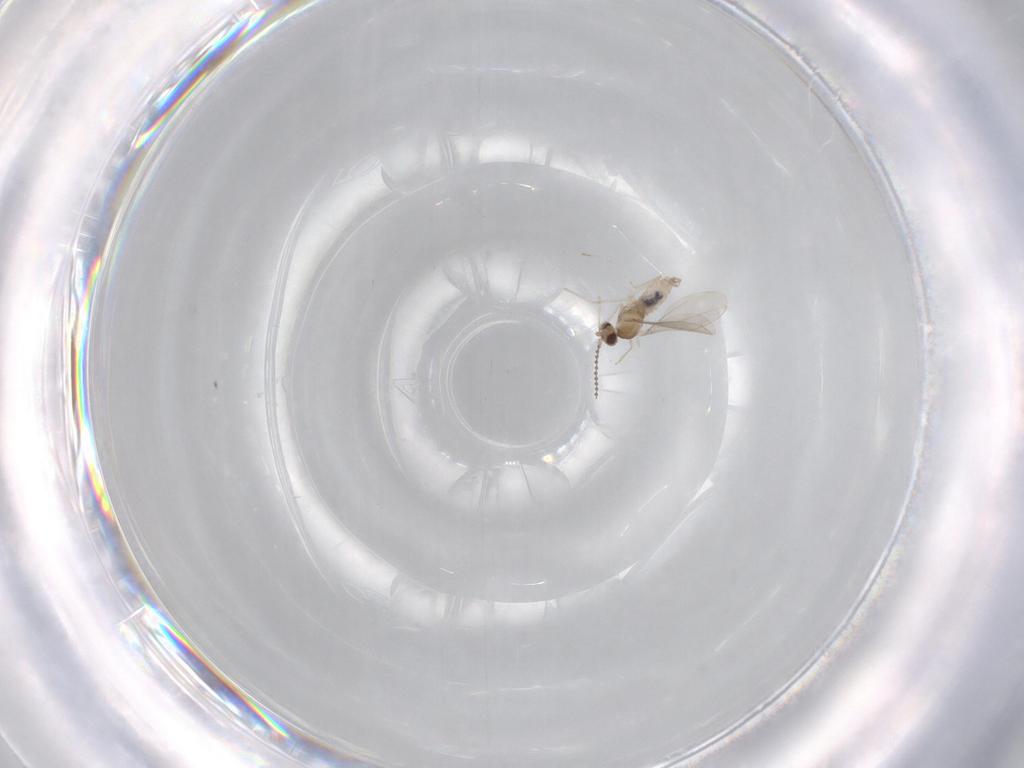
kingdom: Animalia
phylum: Arthropoda
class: Insecta
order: Diptera
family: Cecidomyiidae
